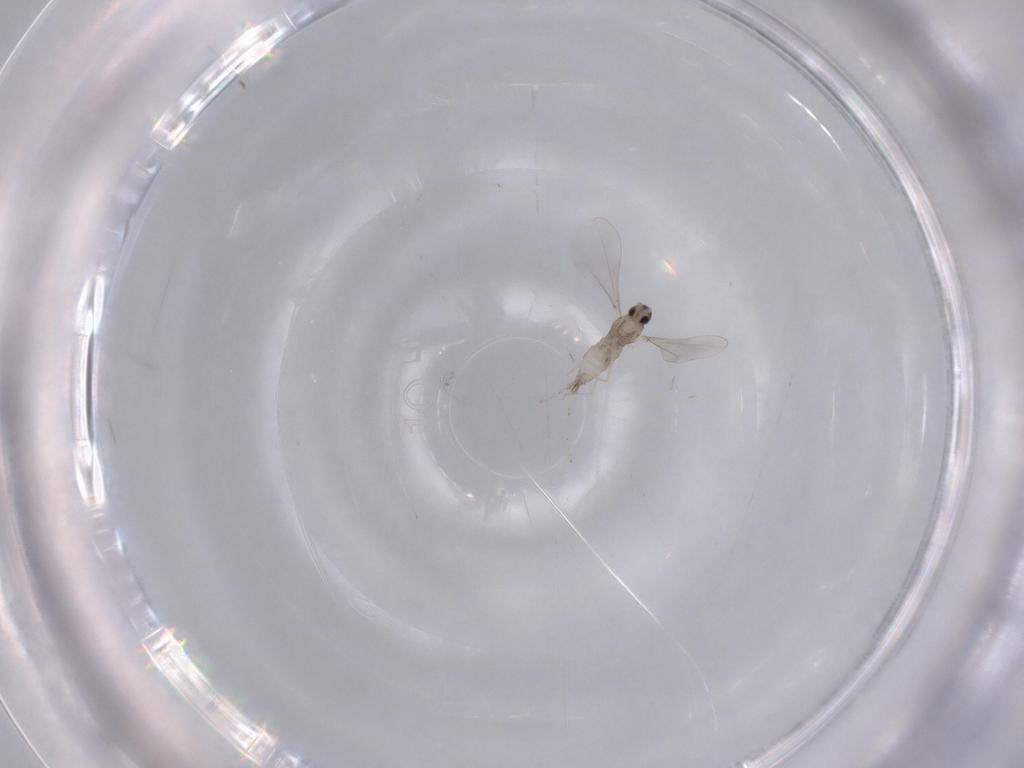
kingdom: Animalia
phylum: Arthropoda
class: Insecta
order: Diptera
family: Cecidomyiidae
